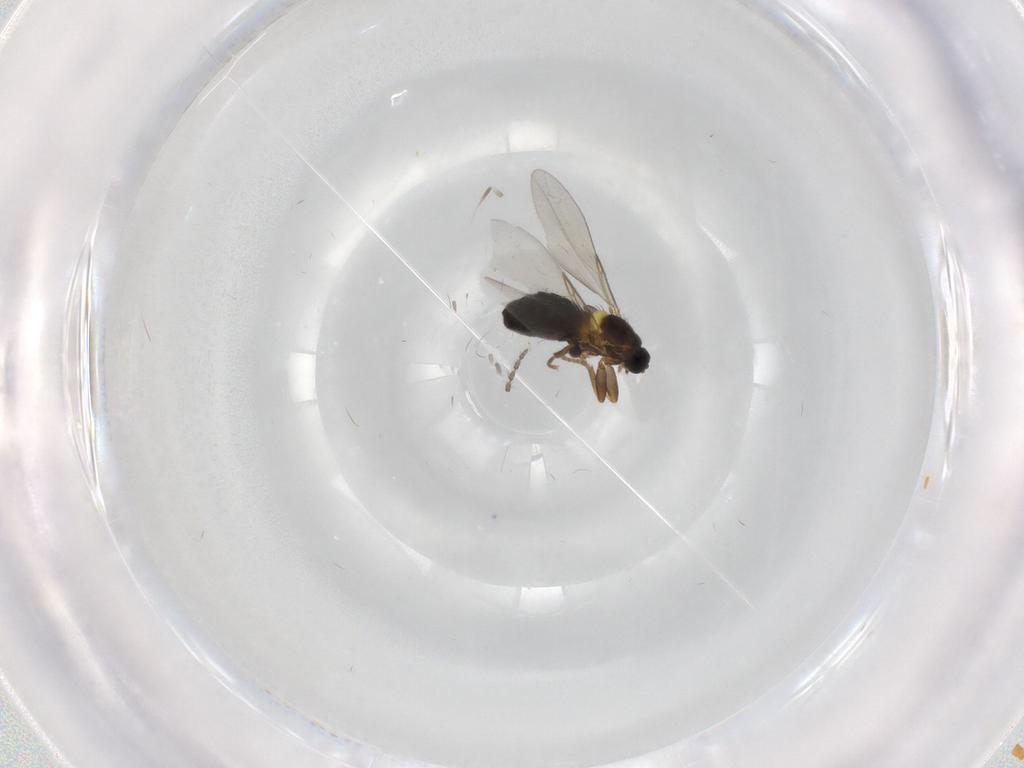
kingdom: Animalia
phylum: Arthropoda
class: Insecta
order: Diptera
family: Scatopsidae
